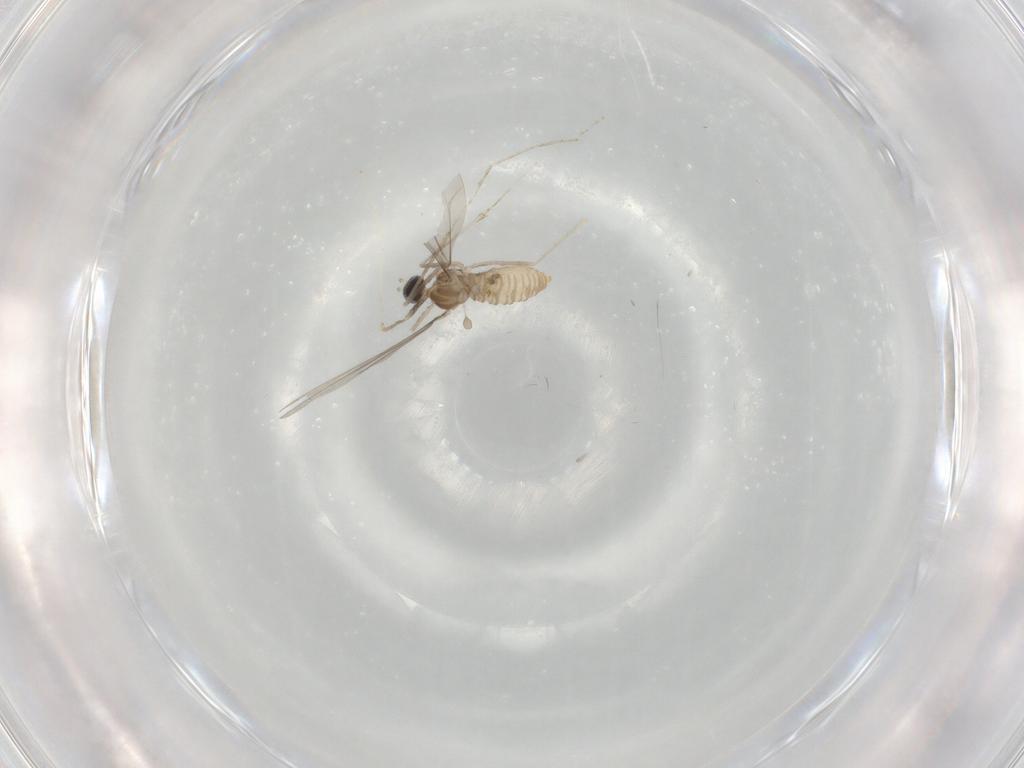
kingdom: Animalia
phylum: Arthropoda
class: Insecta
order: Diptera
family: Cecidomyiidae
